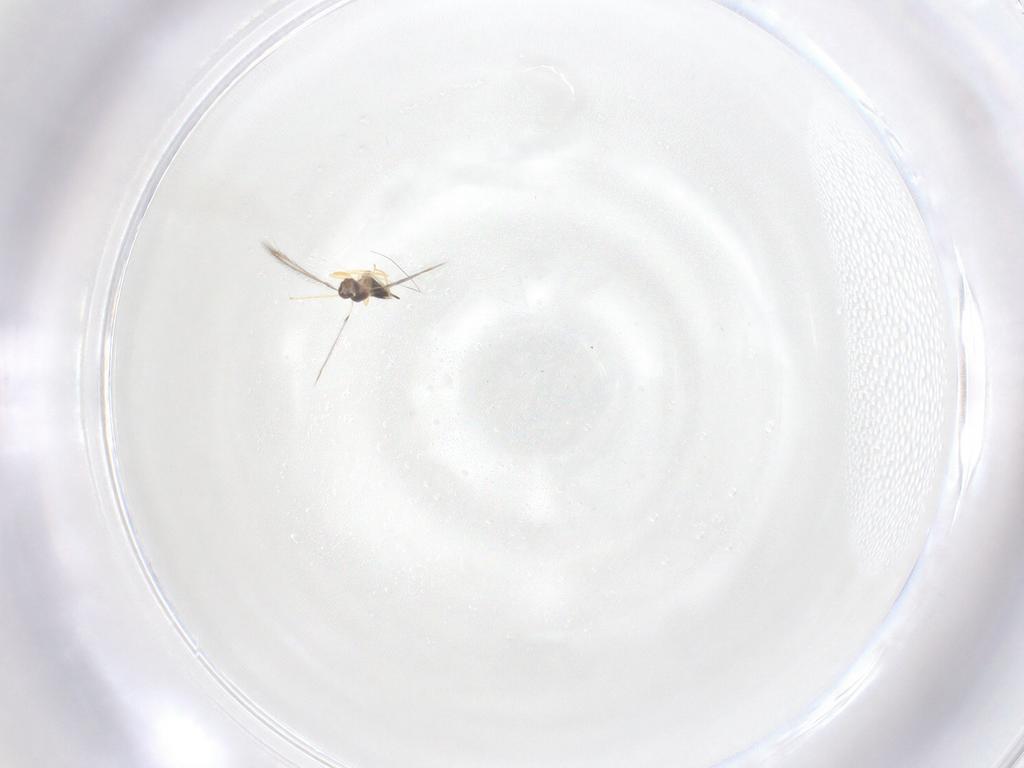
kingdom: Animalia
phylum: Arthropoda
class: Insecta
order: Hymenoptera
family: Mymaridae
